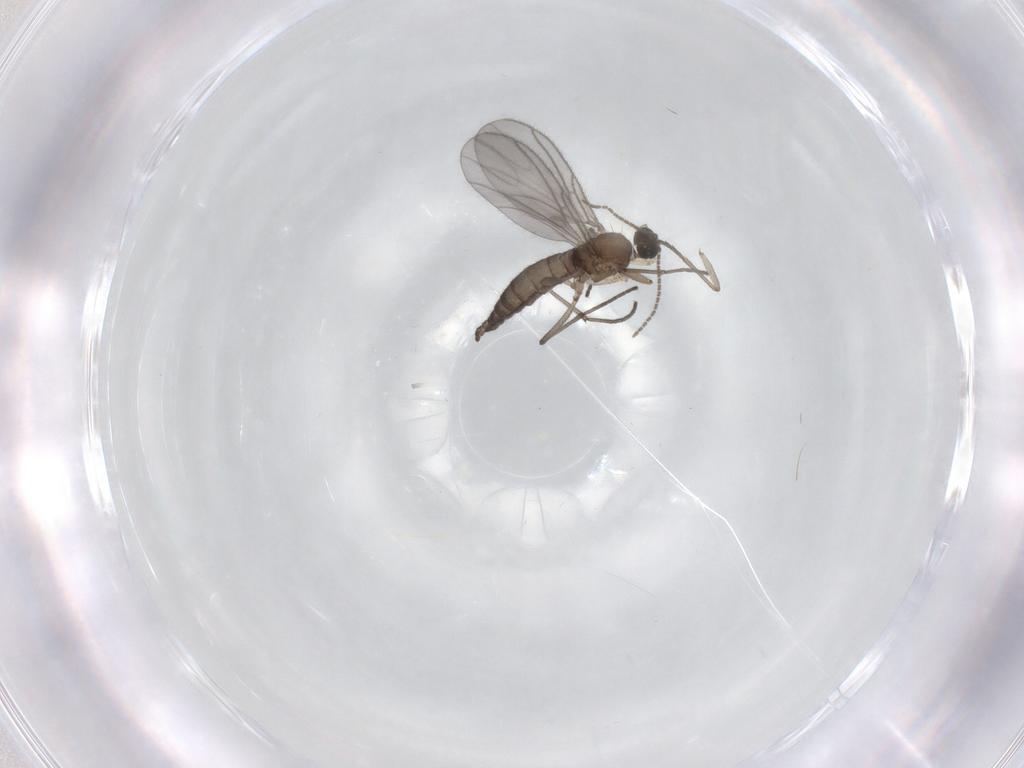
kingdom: Animalia
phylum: Arthropoda
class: Insecta
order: Diptera
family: Sciaridae
